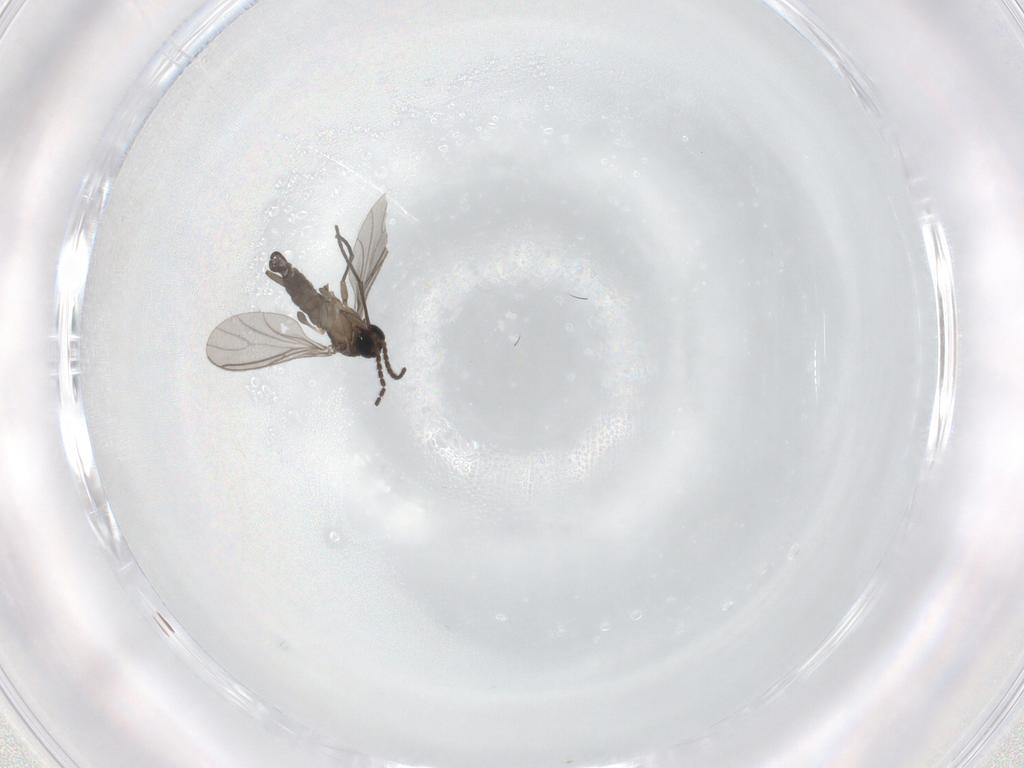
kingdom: Animalia
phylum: Arthropoda
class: Insecta
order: Diptera
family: Sciaridae
